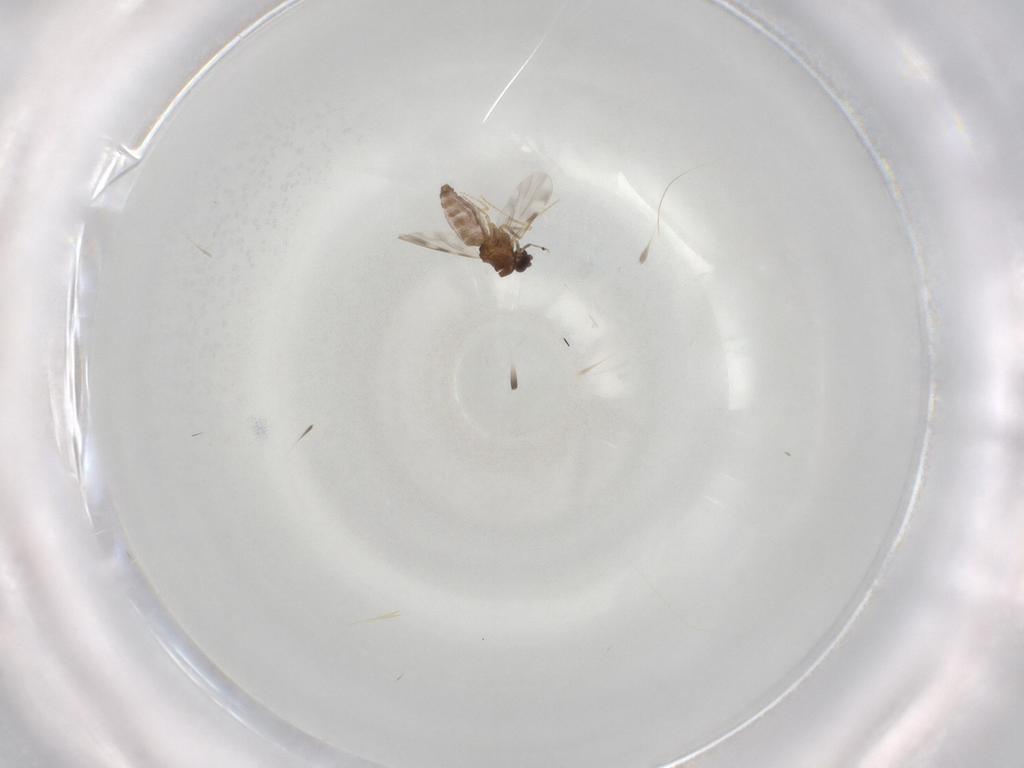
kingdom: Animalia
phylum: Arthropoda
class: Insecta
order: Diptera
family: Ceratopogonidae
